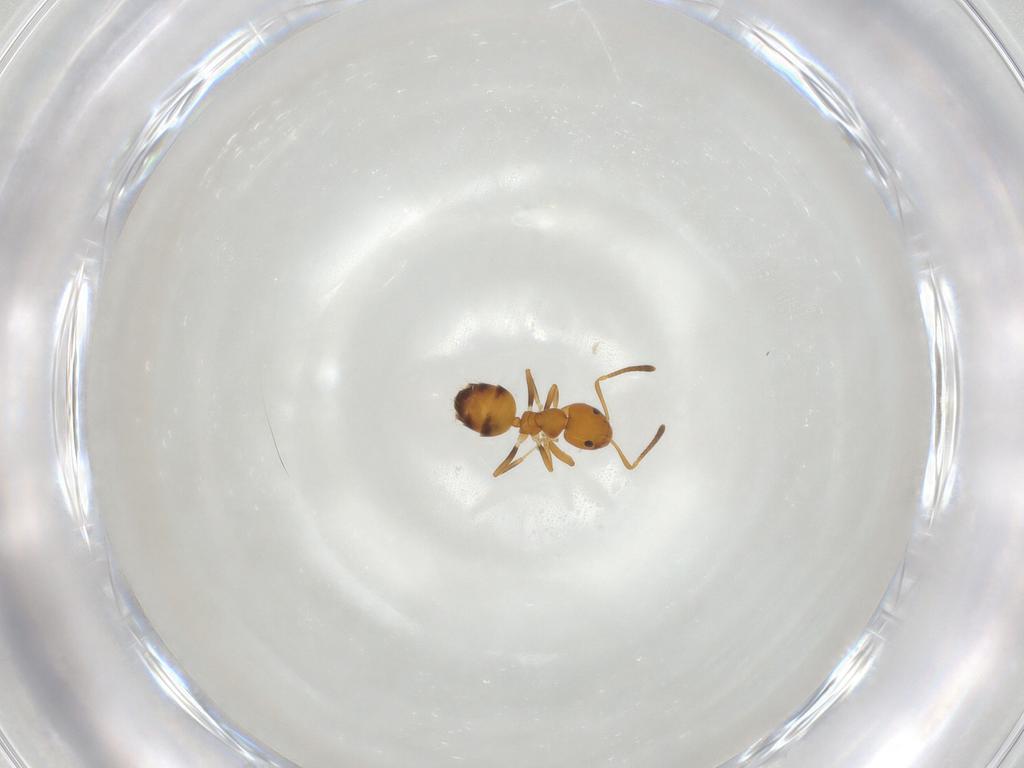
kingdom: Animalia
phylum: Arthropoda
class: Insecta
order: Hymenoptera
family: Formicidae
